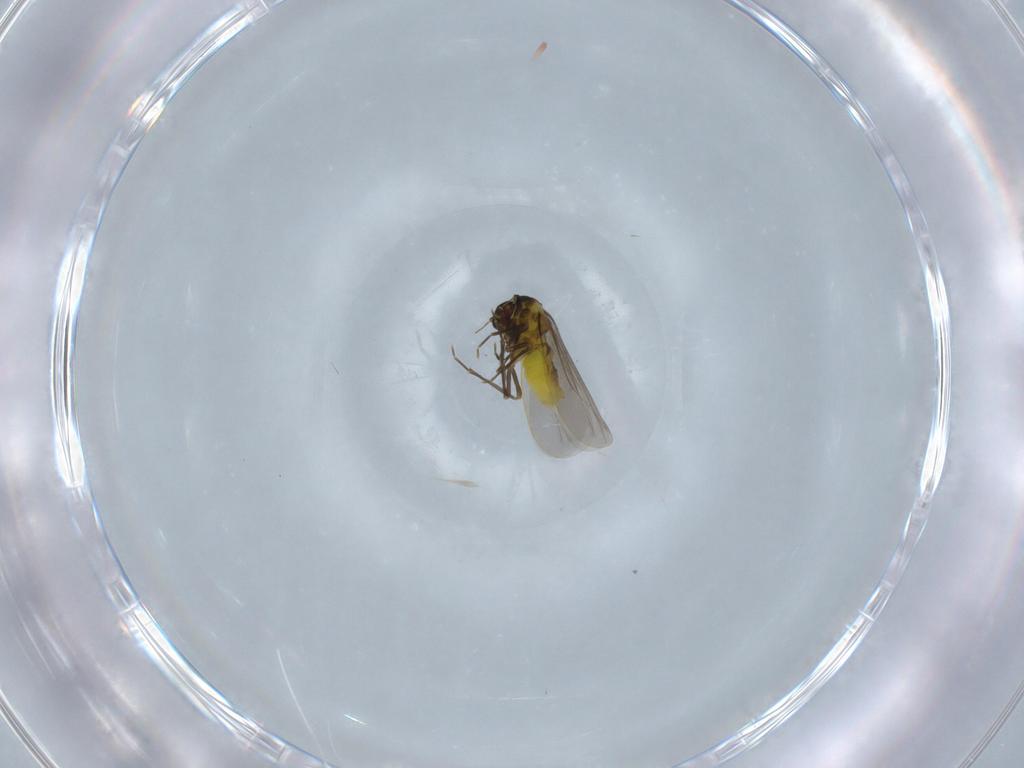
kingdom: Animalia
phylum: Arthropoda
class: Insecta
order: Hemiptera
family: Aleyrodidae
